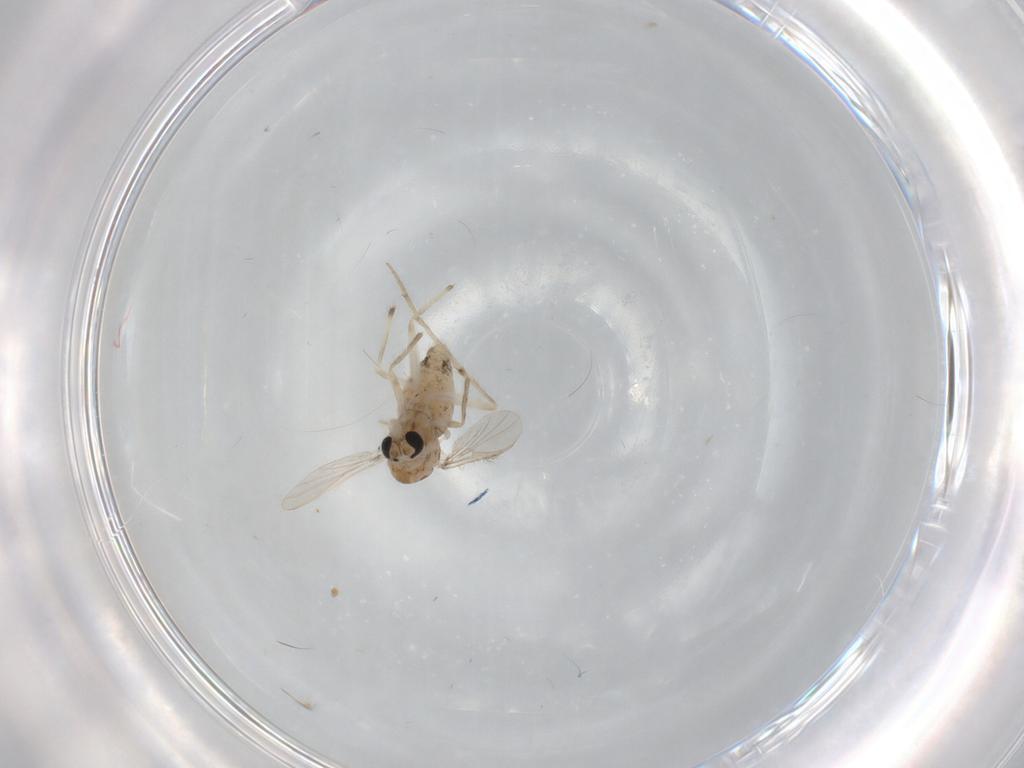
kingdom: Animalia
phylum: Arthropoda
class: Insecta
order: Diptera
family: Chironomidae
